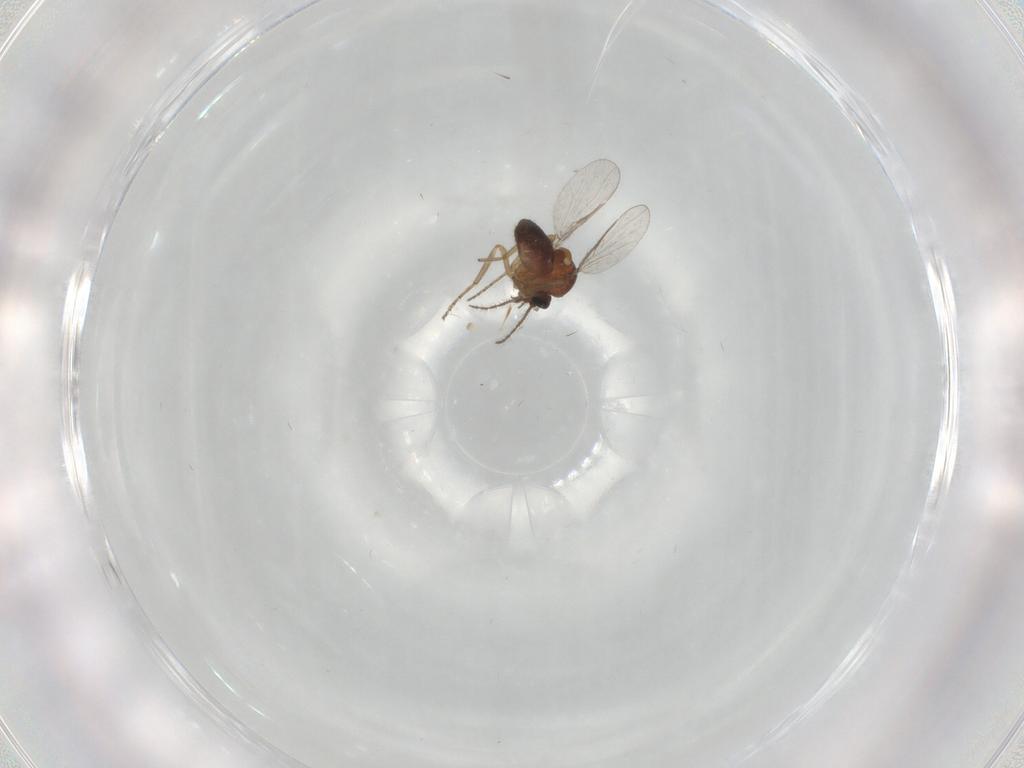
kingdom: Animalia
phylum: Arthropoda
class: Insecta
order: Diptera
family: Ceratopogonidae
